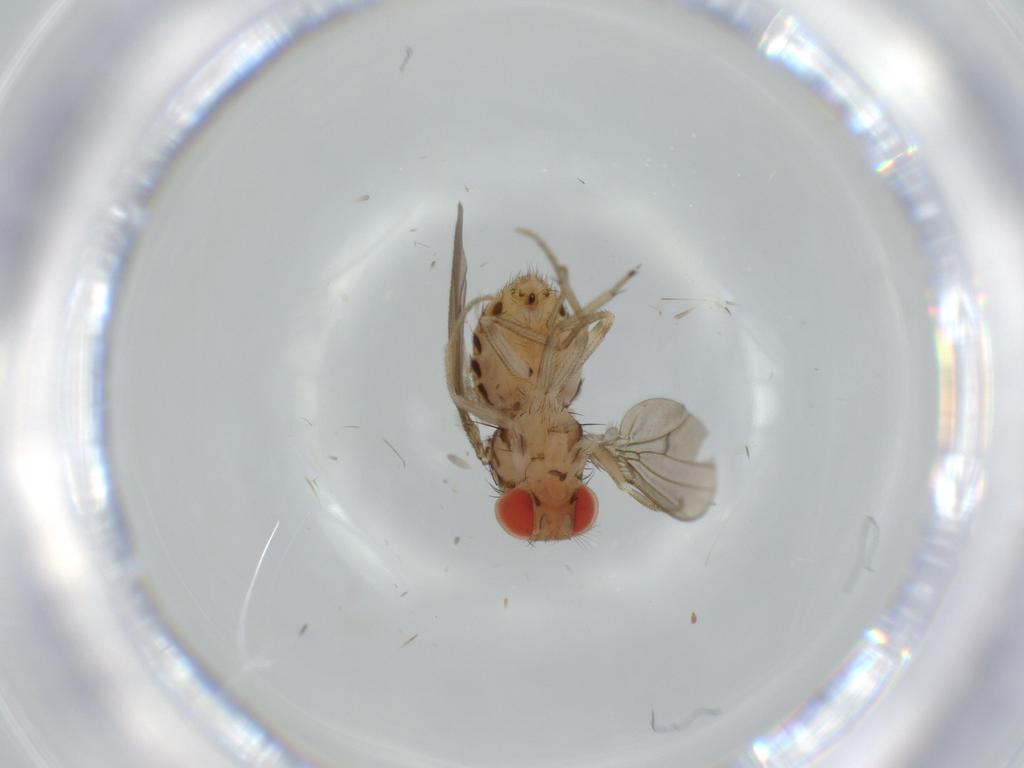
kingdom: Animalia
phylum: Arthropoda
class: Insecta
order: Diptera
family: Drosophilidae
